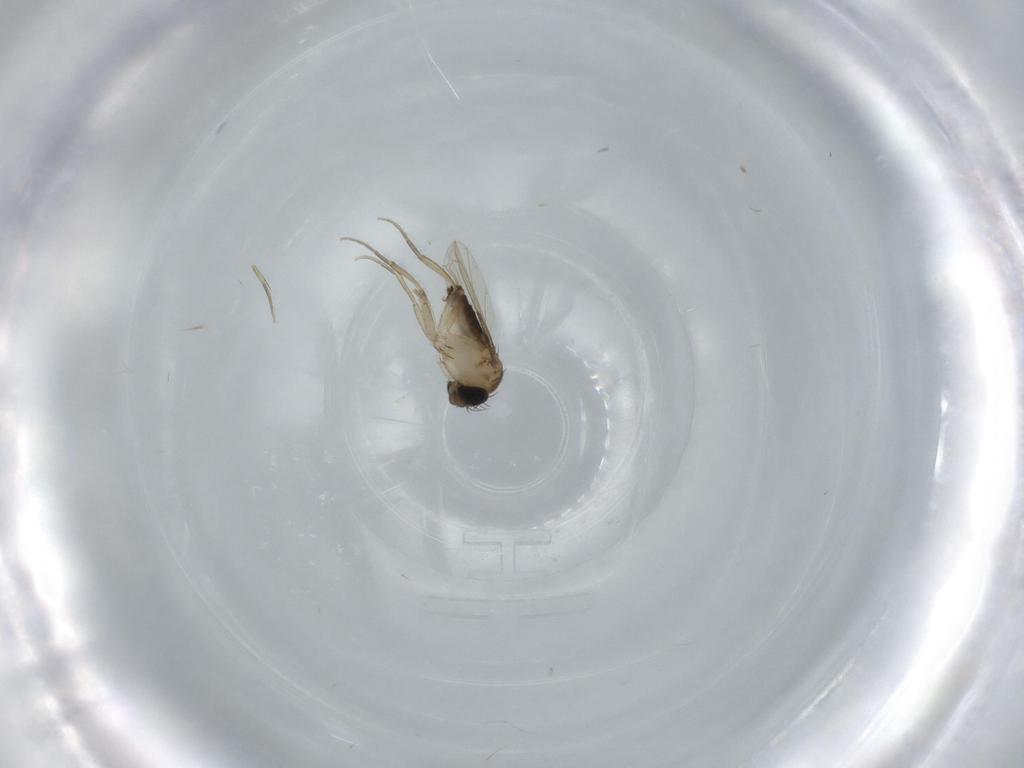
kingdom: Animalia
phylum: Arthropoda
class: Insecta
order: Diptera
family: Phoridae
